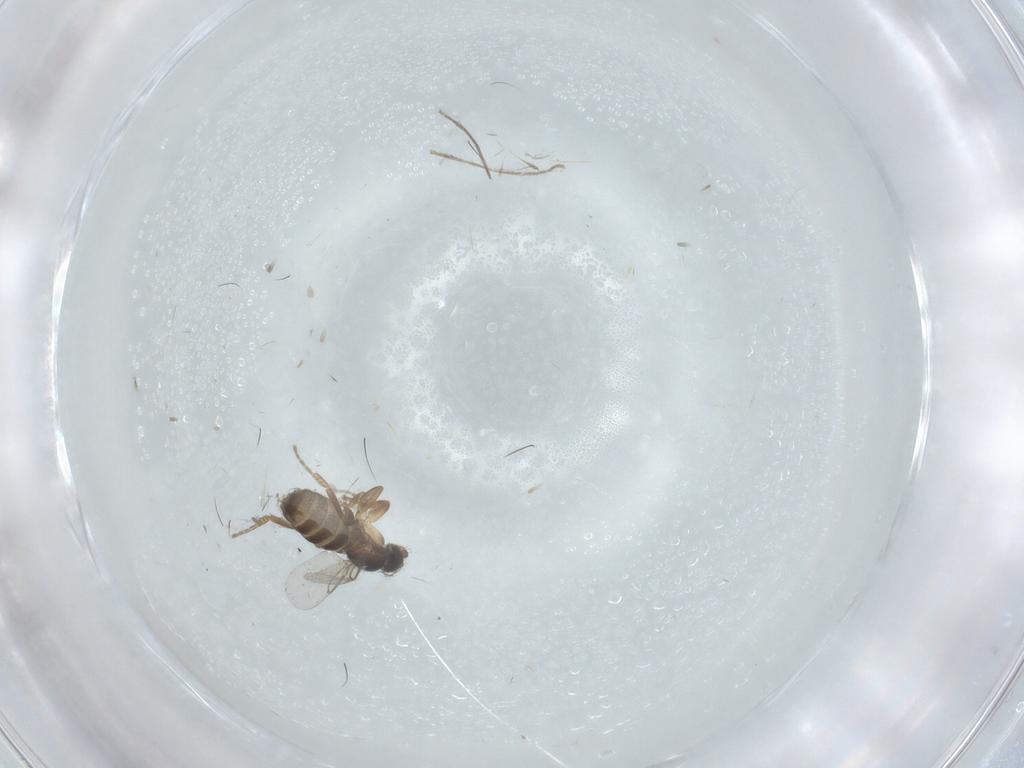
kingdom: Animalia
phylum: Arthropoda
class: Insecta
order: Diptera
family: Phoridae
